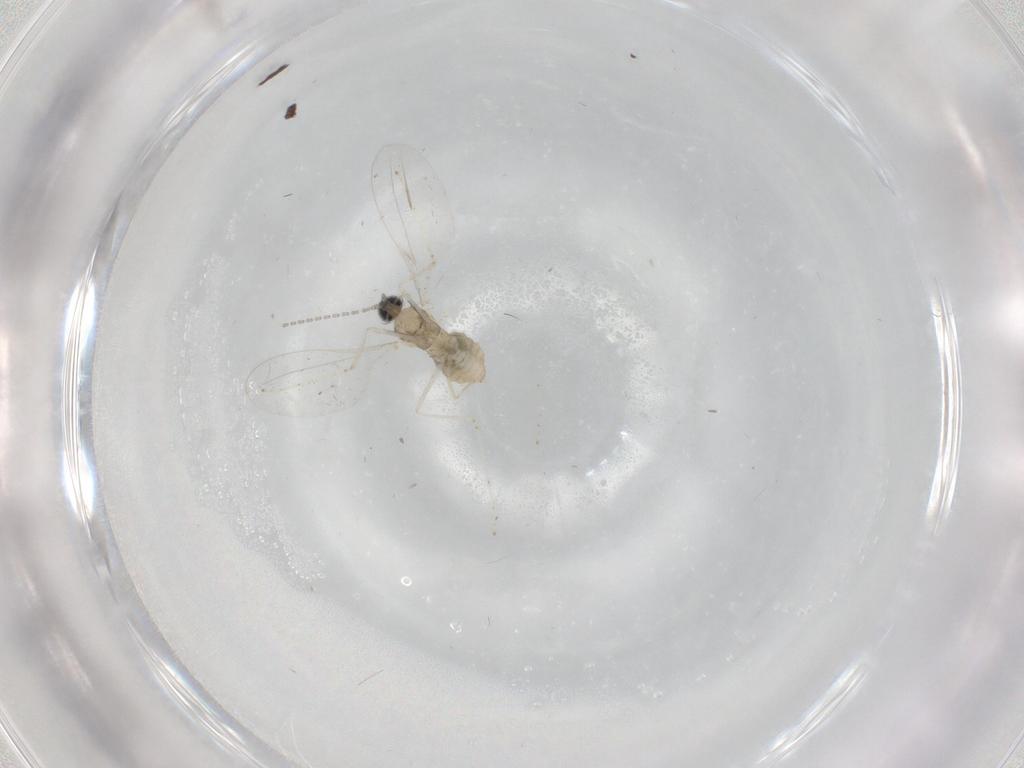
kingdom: Animalia
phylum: Arthropoda
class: Insecta
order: Diptera
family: Cecidomyiidae
